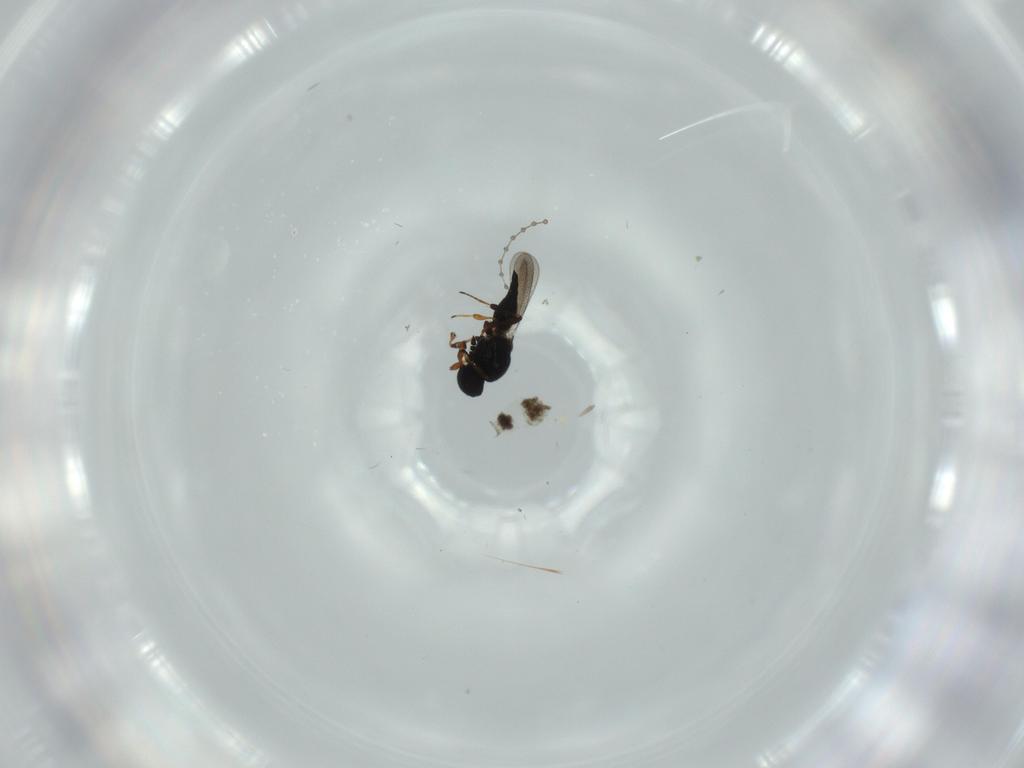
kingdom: Animalia
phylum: Arthropoda
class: Insecta
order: Hymenoptera
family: Platygastridae
